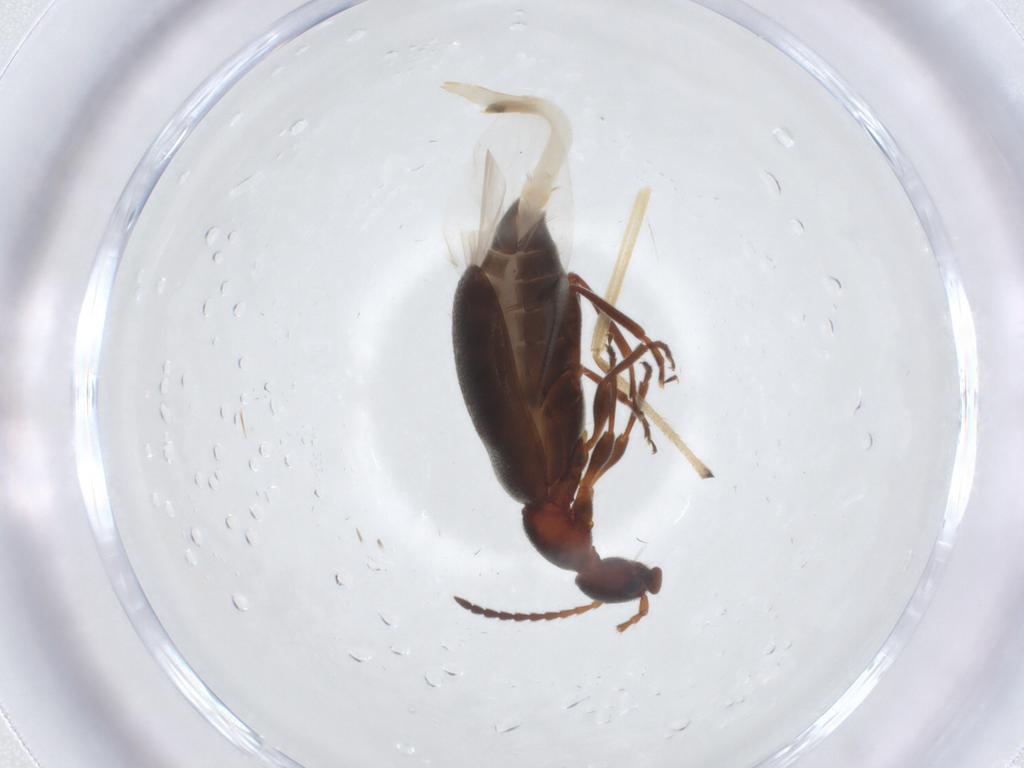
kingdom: Animalia
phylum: Arthropoda
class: Insecta
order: Coleoptera
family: Anthicidae
